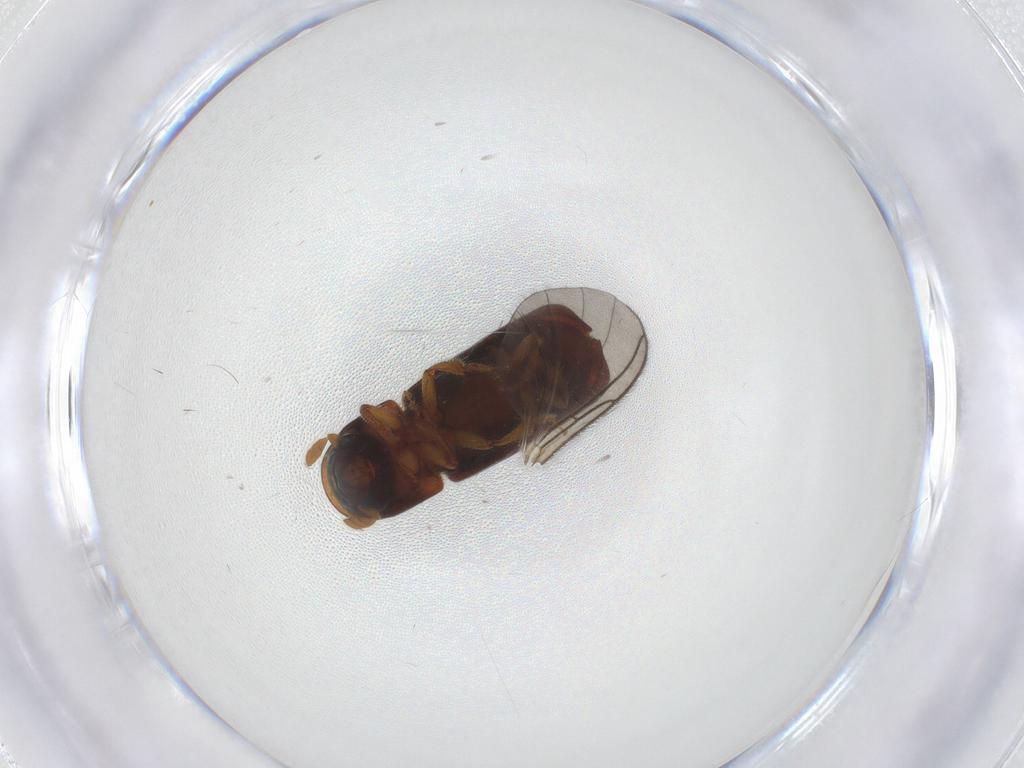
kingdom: Animalia
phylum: Arthropoda
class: Insecta
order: Coleoptera
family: Curculionidae
